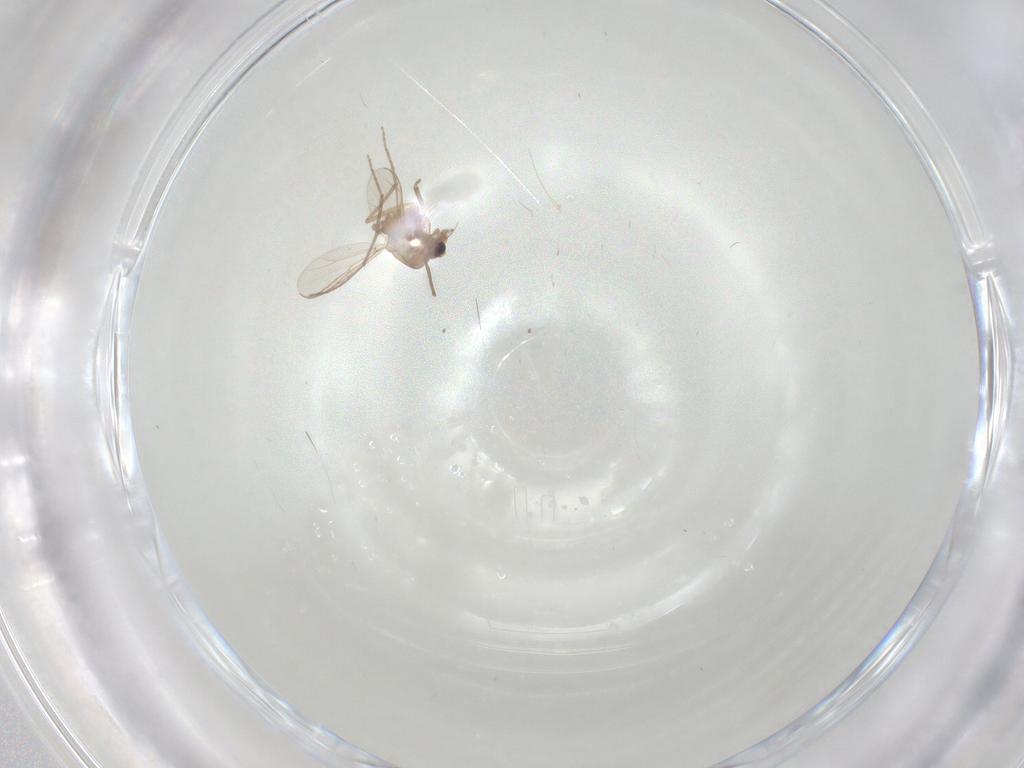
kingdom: Animalia
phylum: Arthropoda
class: Insecta
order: Diptera
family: Chironomidae
